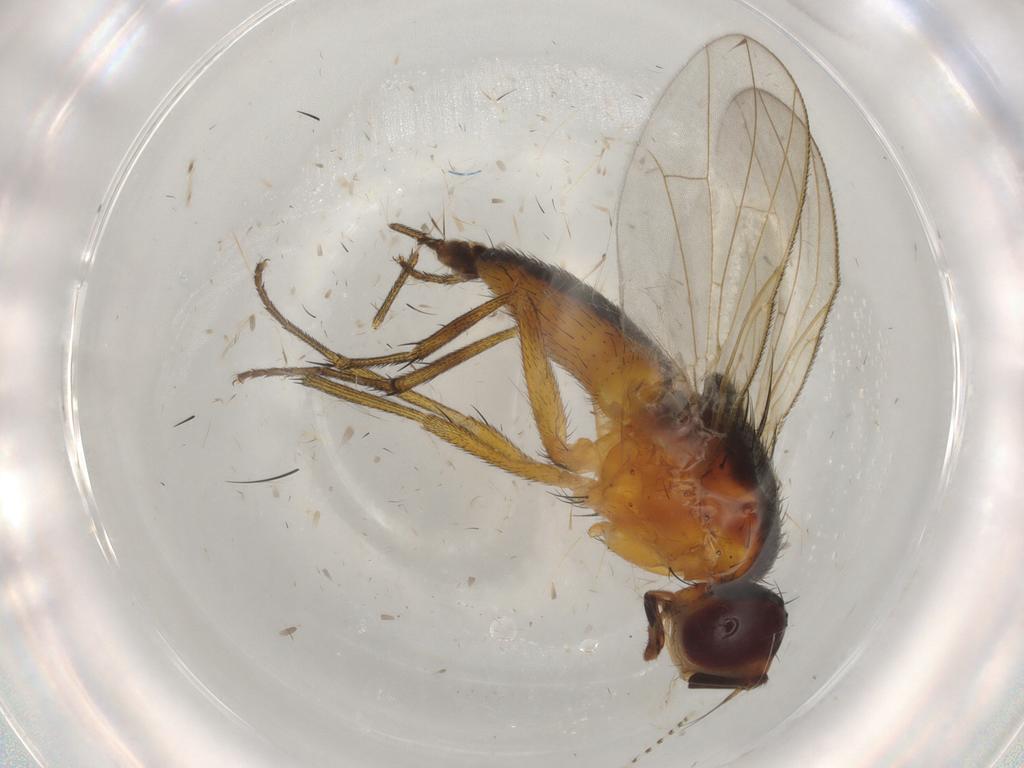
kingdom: Animalia
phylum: Arthropoda
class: Insecta
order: Diptera
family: Muscidae
